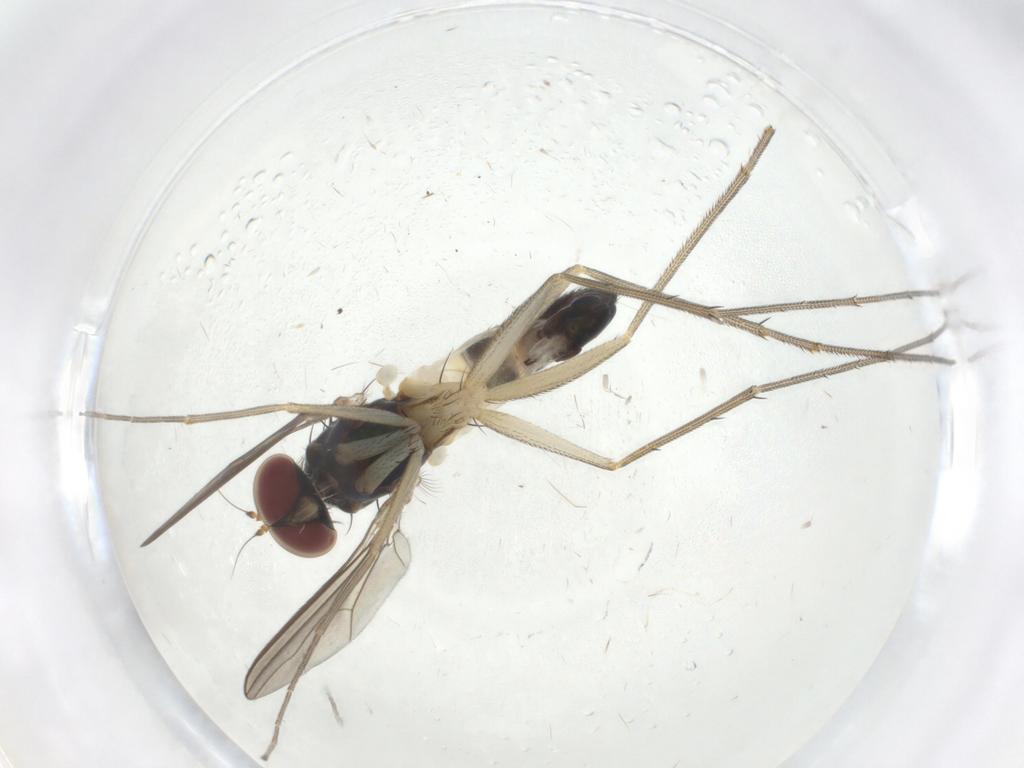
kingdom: Animalia
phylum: Arthropoda
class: Insecta
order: Diptera
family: Dolichopodidae
